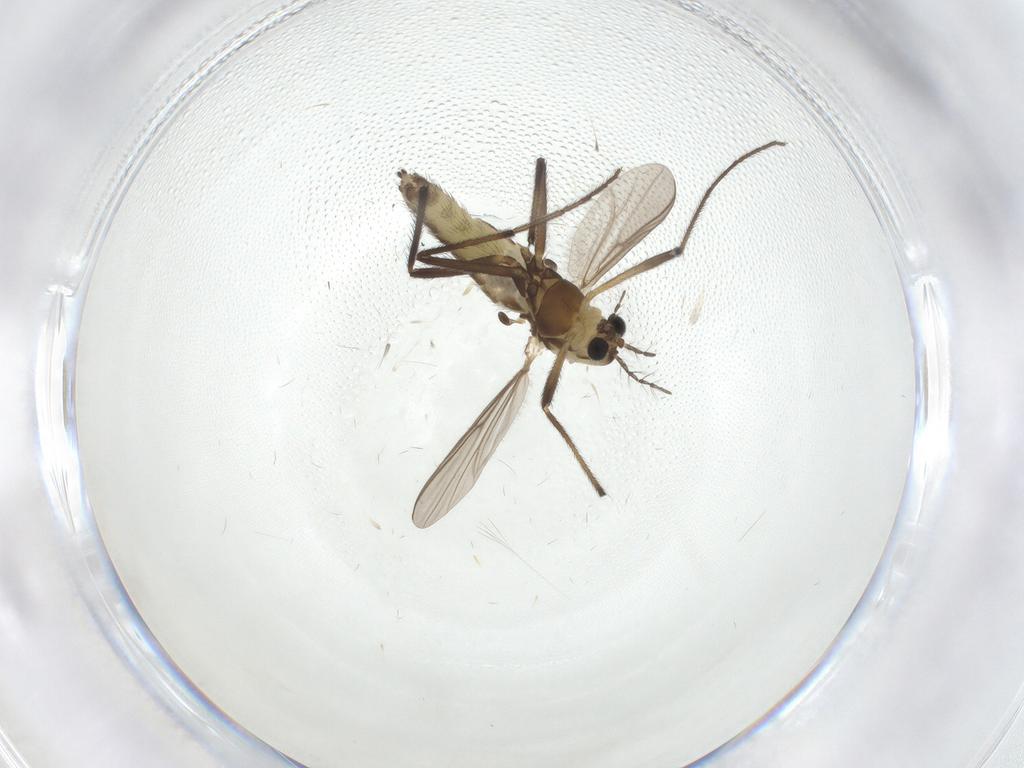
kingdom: Animalia
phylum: Arthropoda
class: Insecta
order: Diptera
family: Chironomidae
